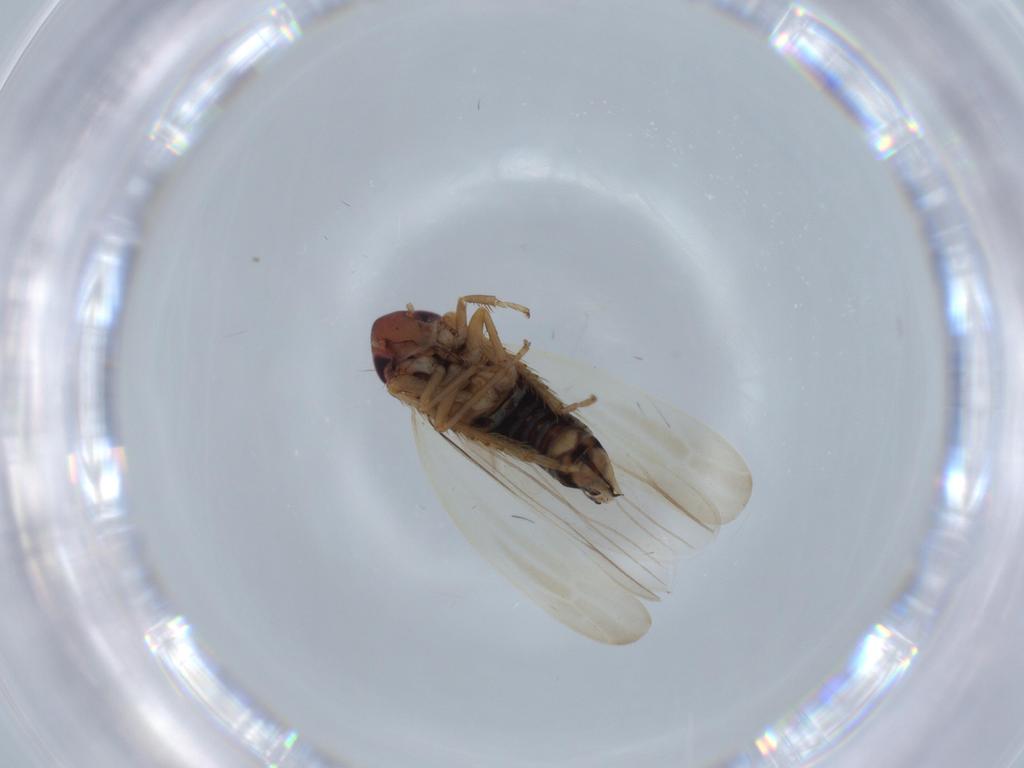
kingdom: Animalia
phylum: Arthropoda
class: Insecta
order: Hemiptera
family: Cicadellidae
